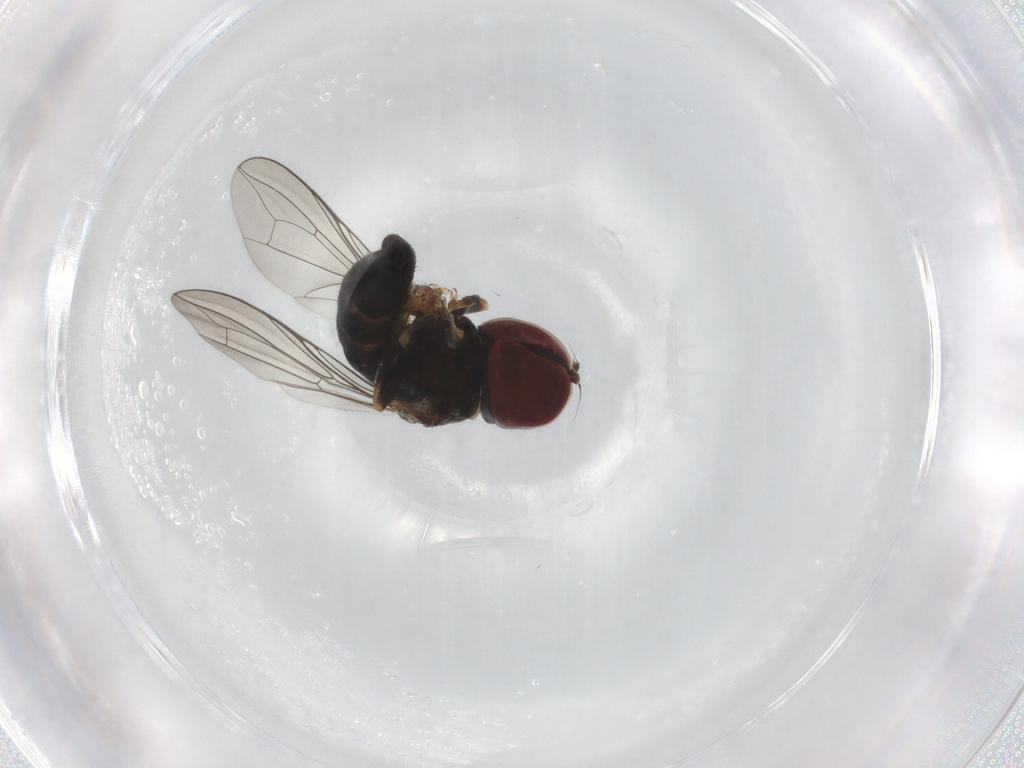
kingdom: Animalia
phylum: Arthropoda
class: Insecta
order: Diptera
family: Pipunculidae
